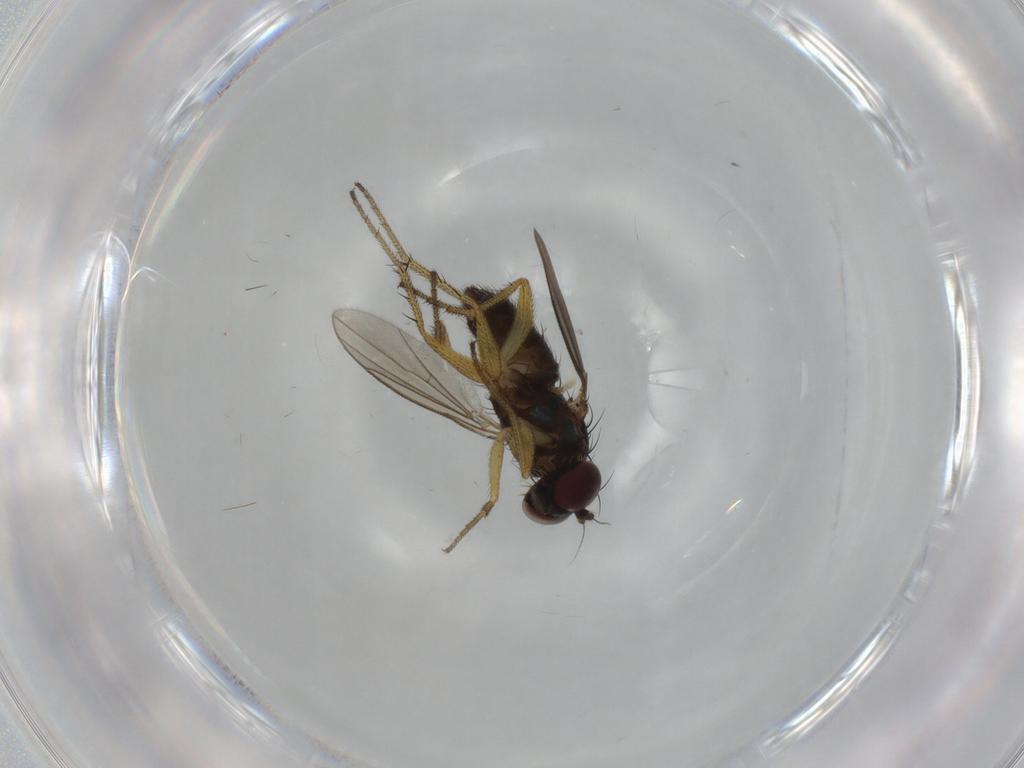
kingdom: Animalia
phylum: Arthropoda
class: Insecta
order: Diptera
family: Dolichopodidae
